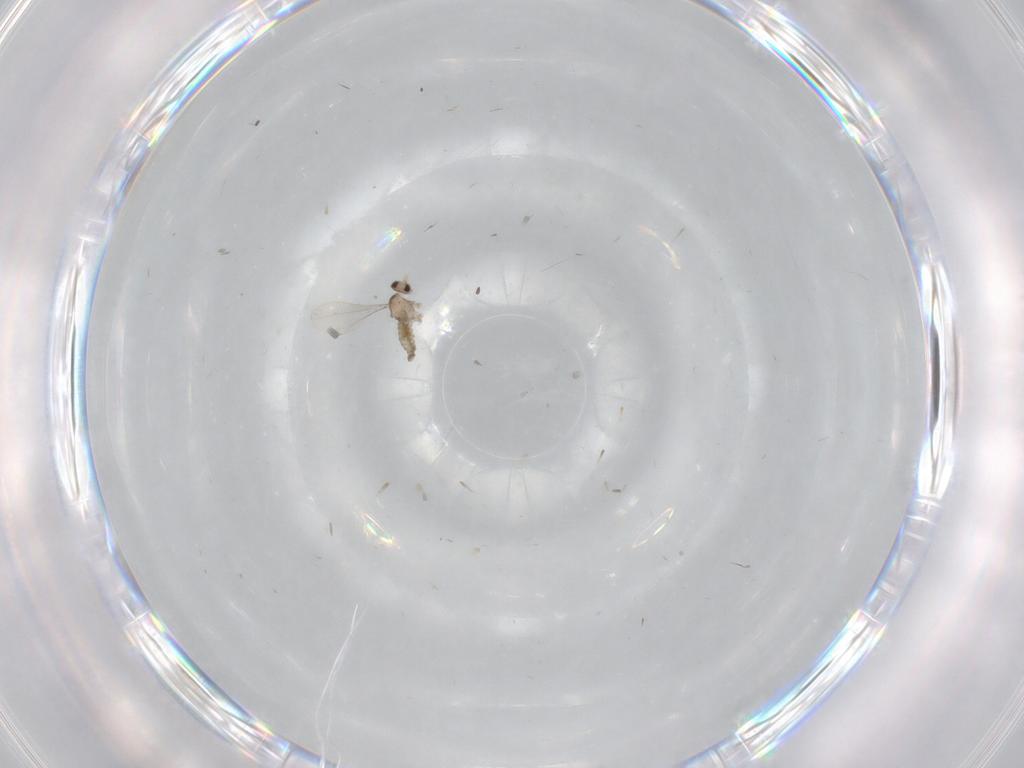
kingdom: Animalia
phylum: Arthropoda
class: Insecta
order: Diptera
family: Cecidomyiidae
